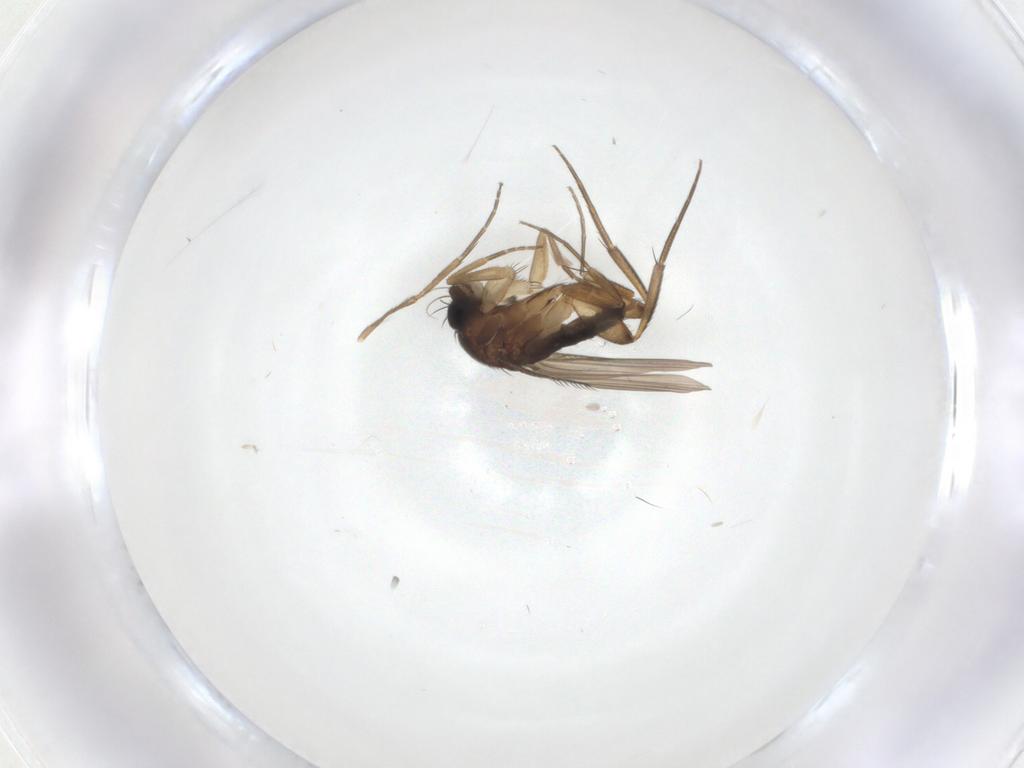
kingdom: Animalia
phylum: Arthropoda
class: Insecta
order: Diptera
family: Phoridae
